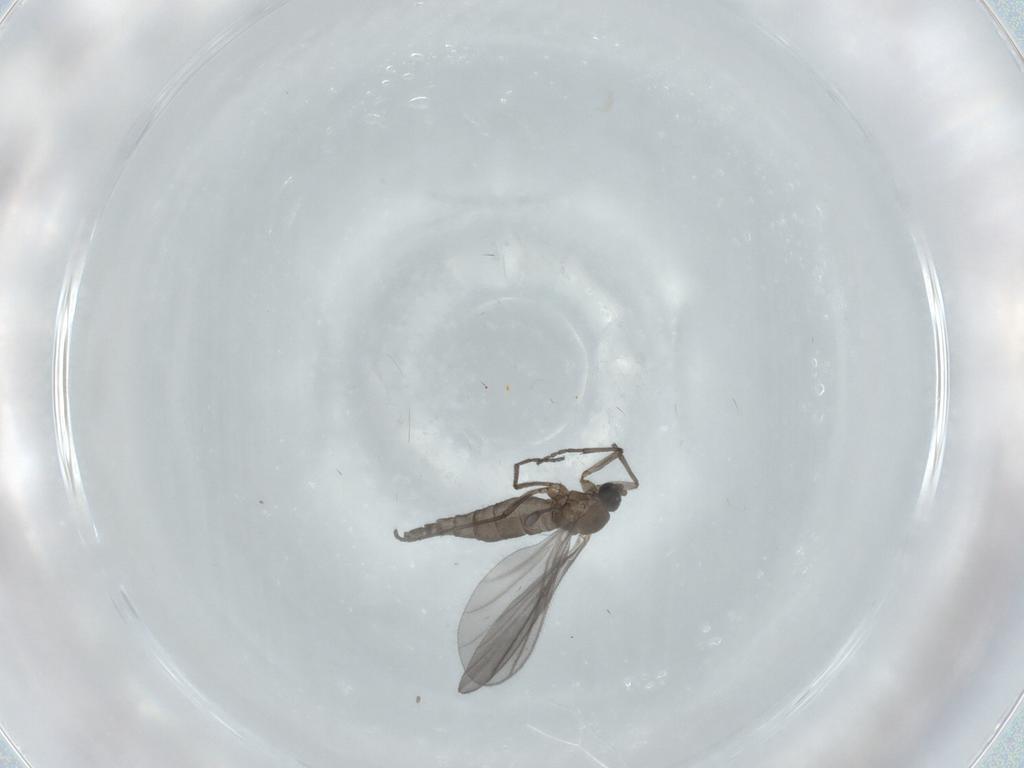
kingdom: Animalia
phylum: Arthropoda
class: Insecta
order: Diptera
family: Sciaridae
